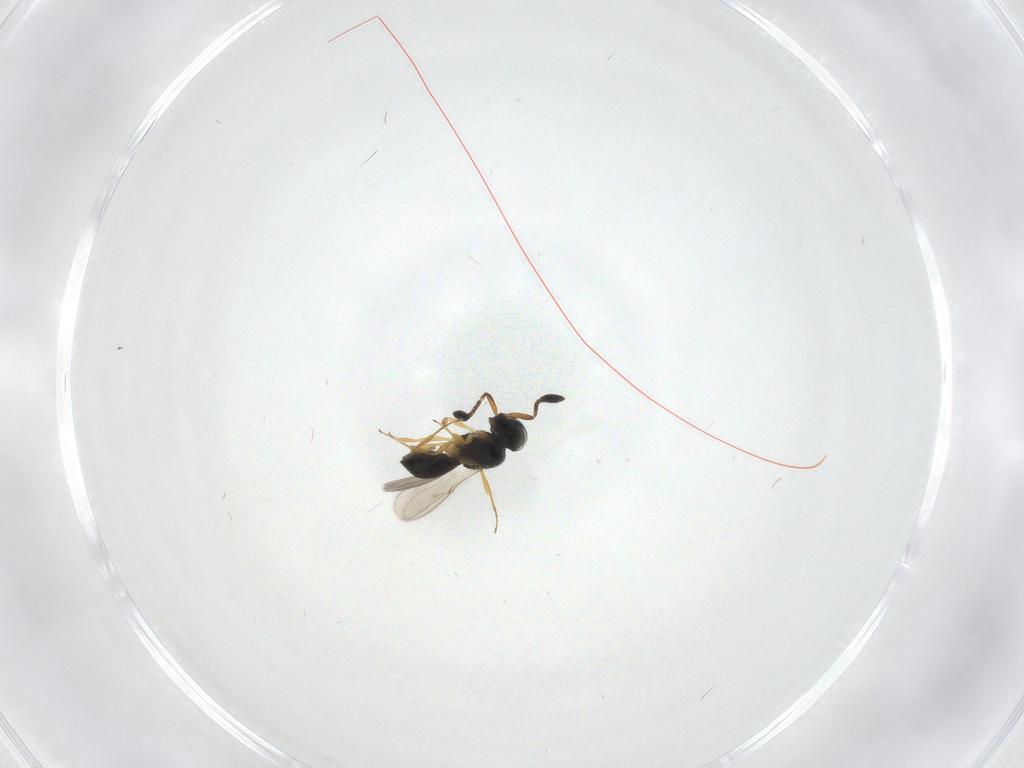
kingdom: Animalia
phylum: Arthropoda
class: Insecta
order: Hymenoptera
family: Scelionidae
